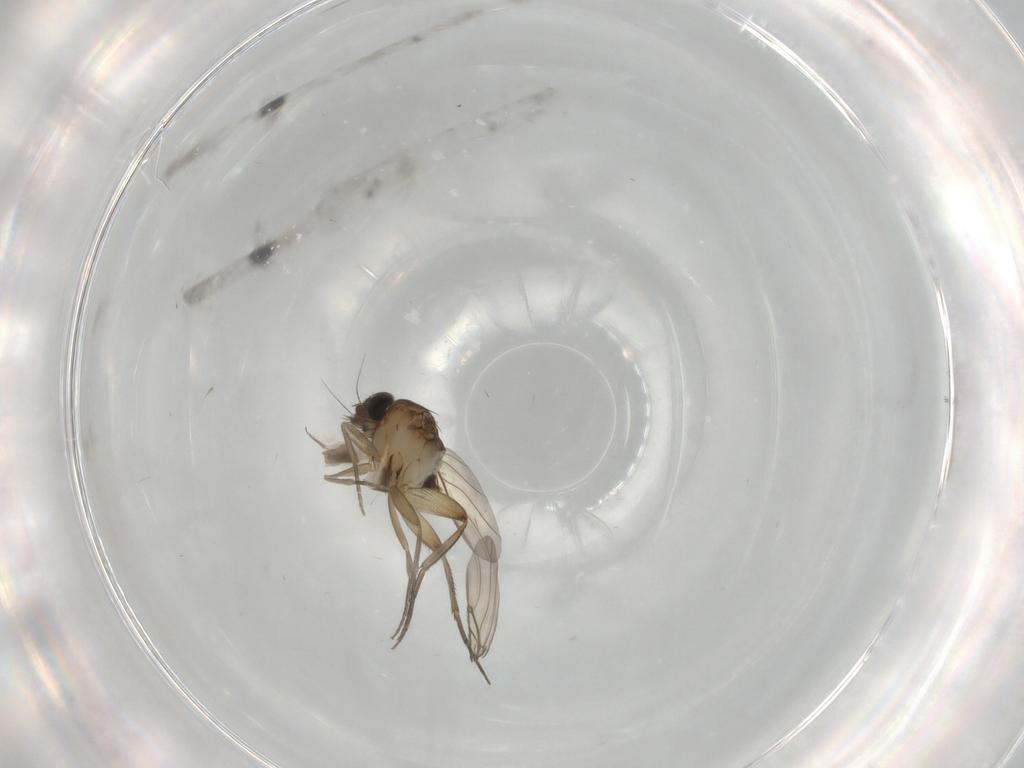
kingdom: Animalia
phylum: Arthropoda
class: Insecta
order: Diptera
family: Phoridae
